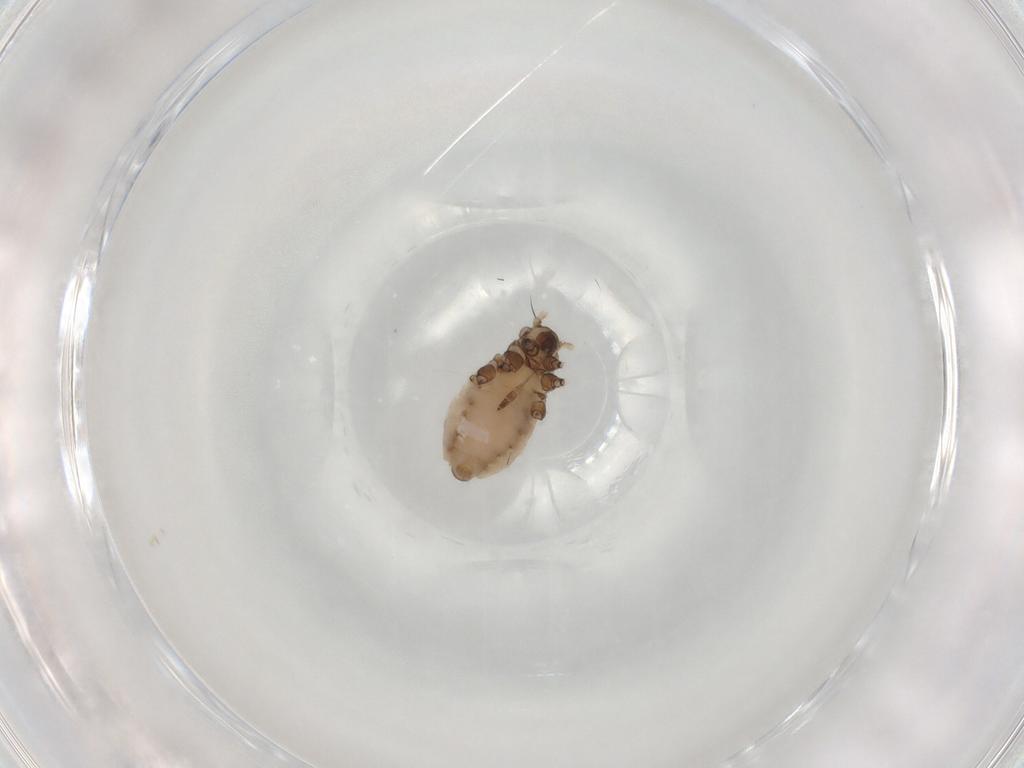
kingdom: Animalia
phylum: Arthropoda
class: Insecta
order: Hemiptera
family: Aphididae
